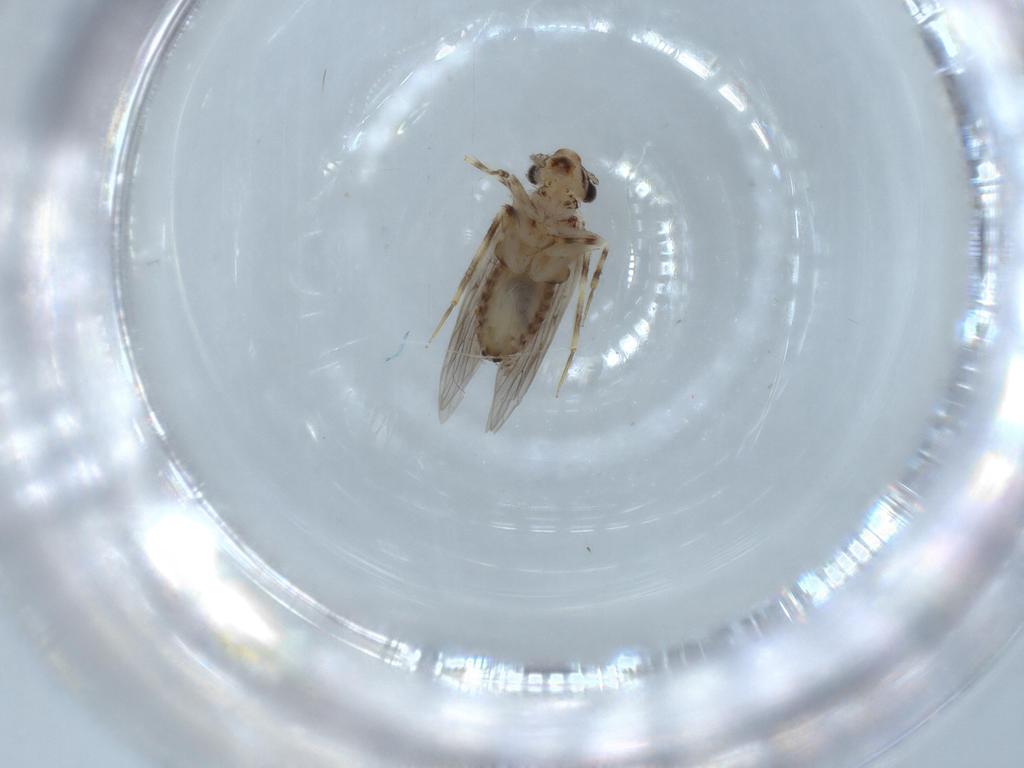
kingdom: Animalia
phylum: Arthropoda
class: Insecta
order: Psocodea
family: Lepidopsocidae
